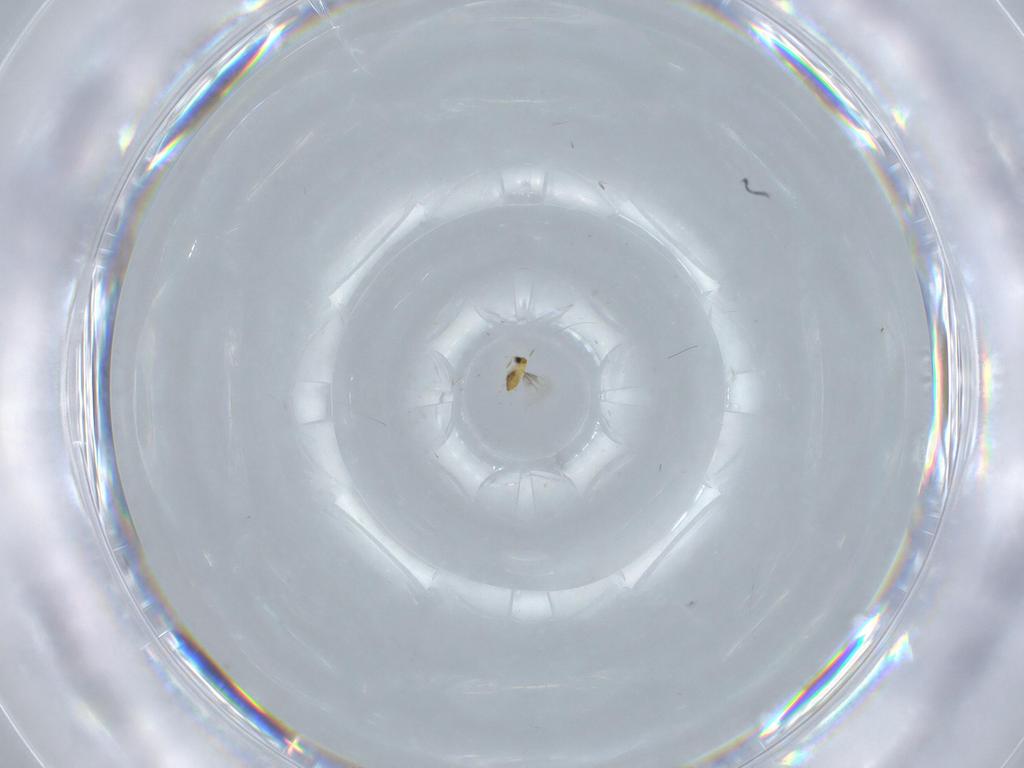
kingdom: Animalia
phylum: Arthropoda
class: Insecta
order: Hymenoptera
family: Trichogrammatidae
